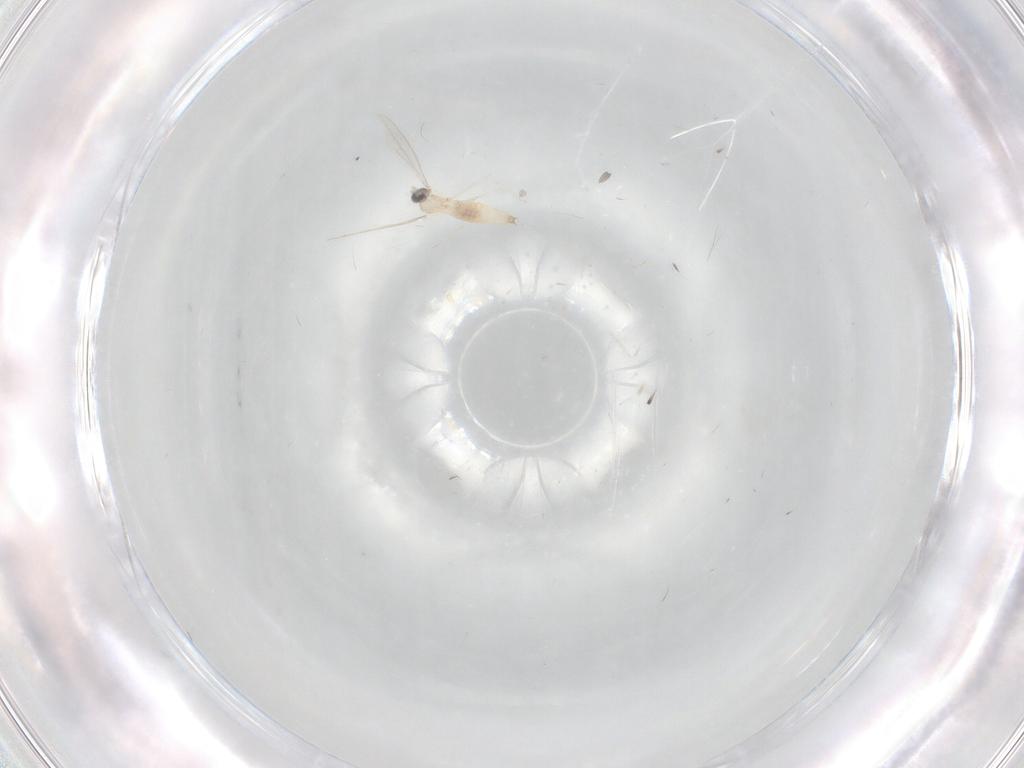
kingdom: Animalia
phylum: Arthropoda
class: Insecta
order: Diptera
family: Cecidomyiidae
